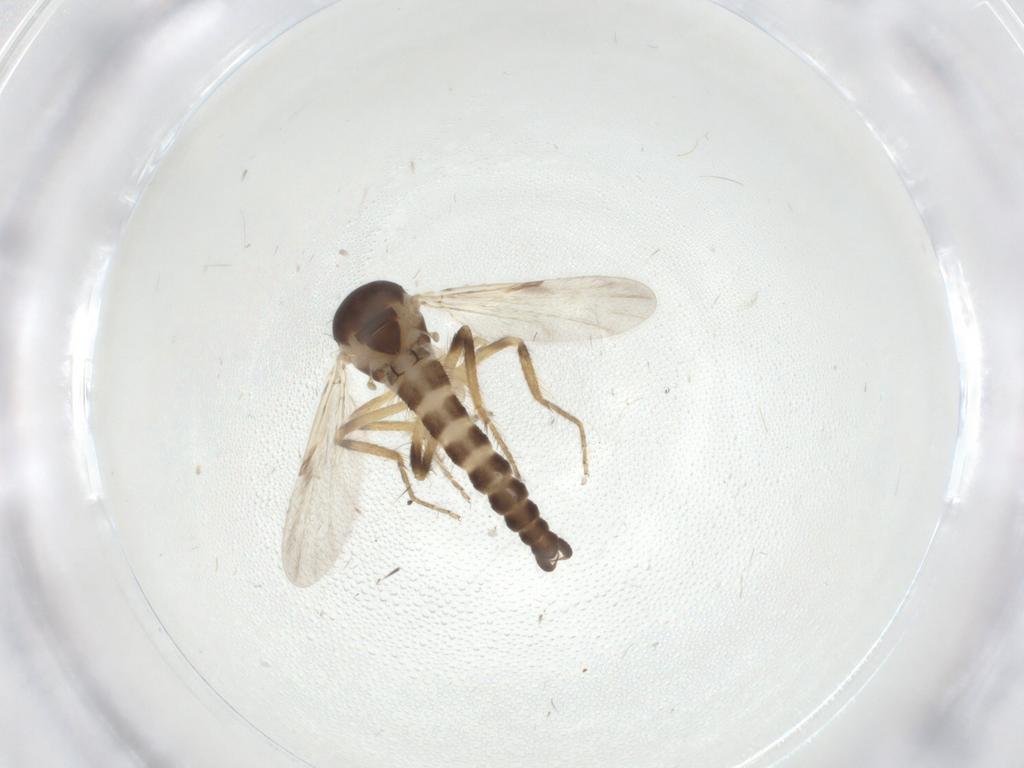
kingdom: Animalia
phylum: Arthropoda
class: Insecta
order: Diptera
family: Ceratopogonidae
